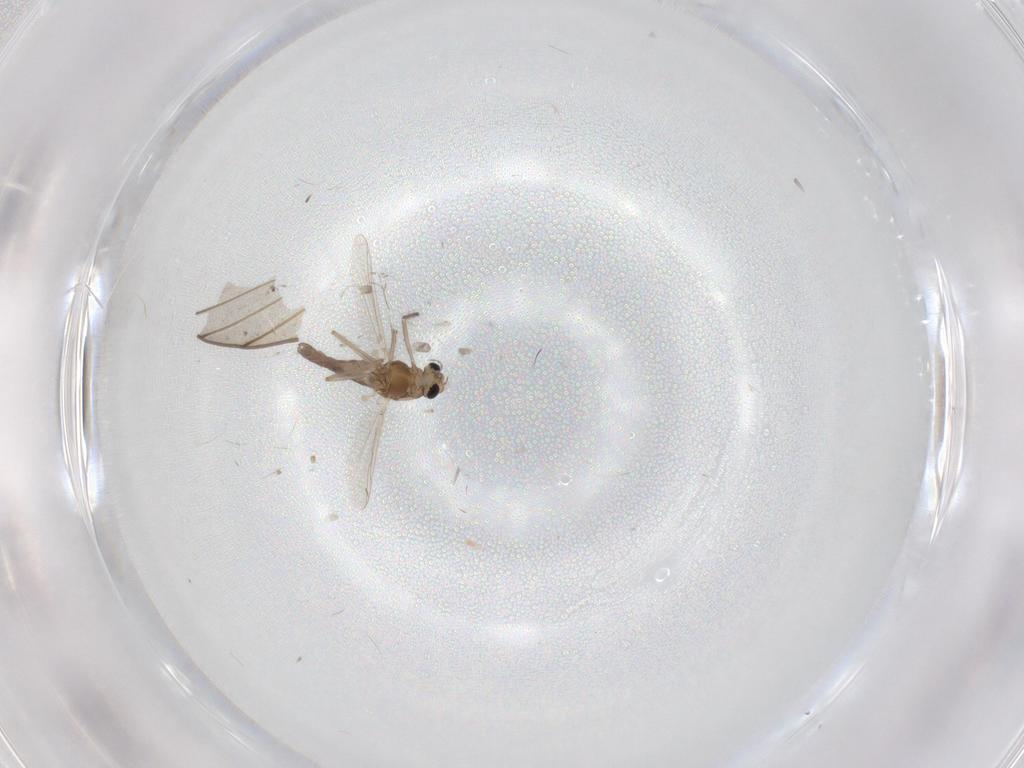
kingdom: Animalia
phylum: Arthropoda
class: Insecta
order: Diptera
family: Chironomidae
